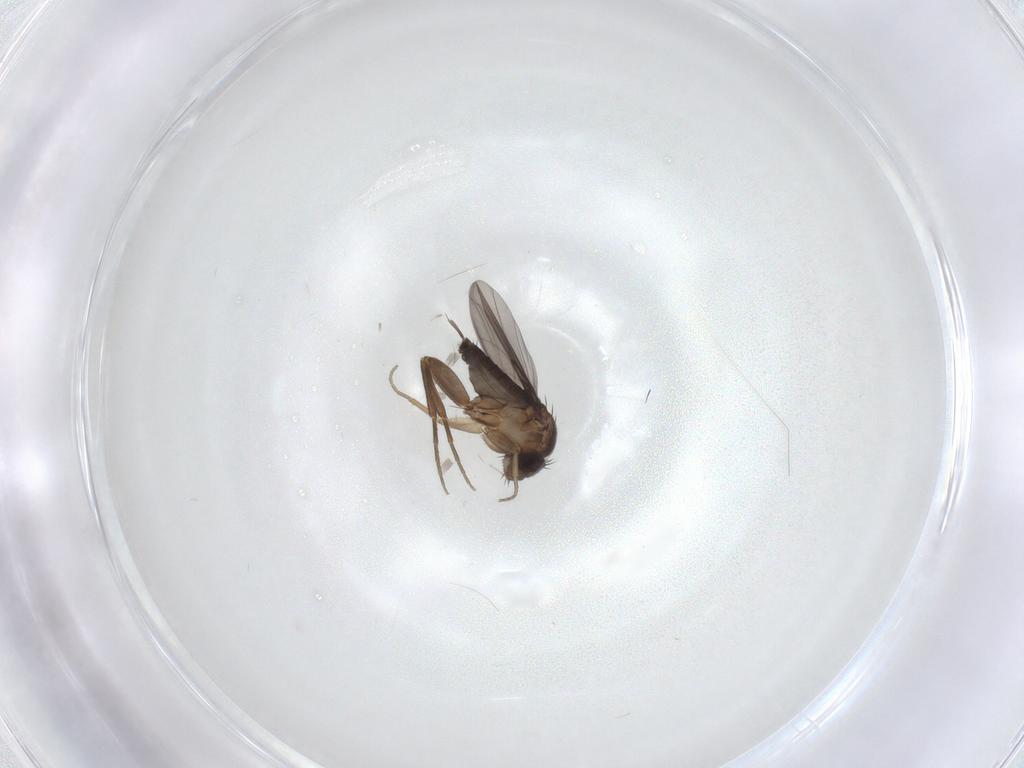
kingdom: Animalia
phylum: Arthropoda
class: Insecta
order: Diptera
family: Phoridae
